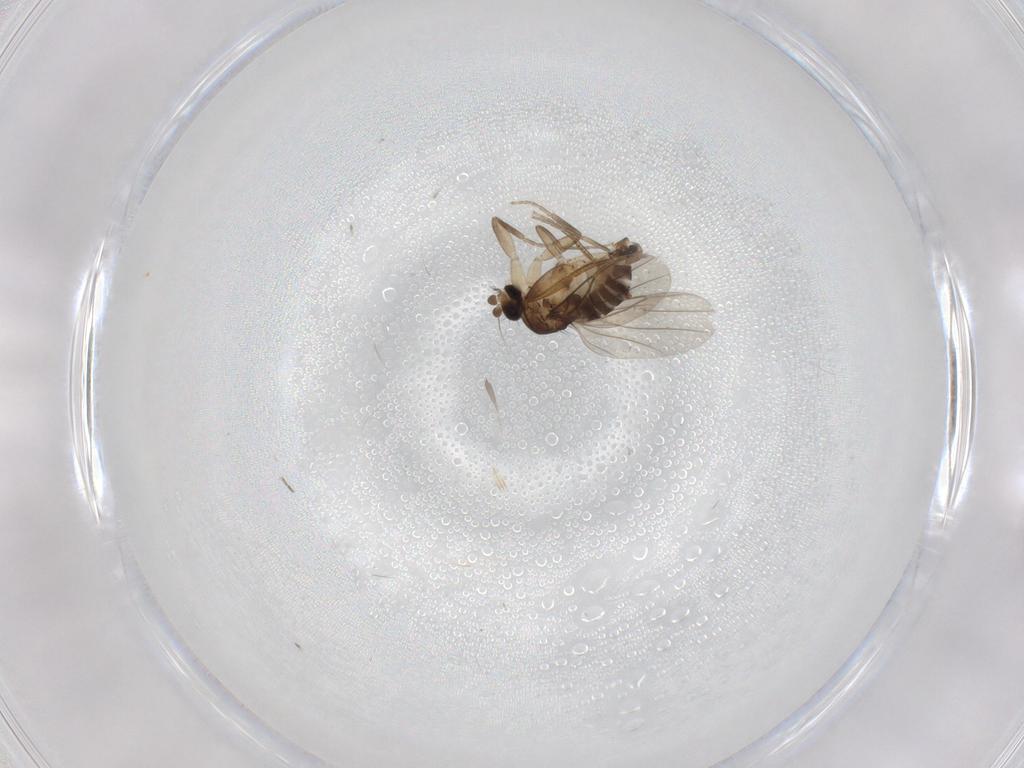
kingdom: Animalia
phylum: Arthropoda
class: Insecta
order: Diptera
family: Phoridae
